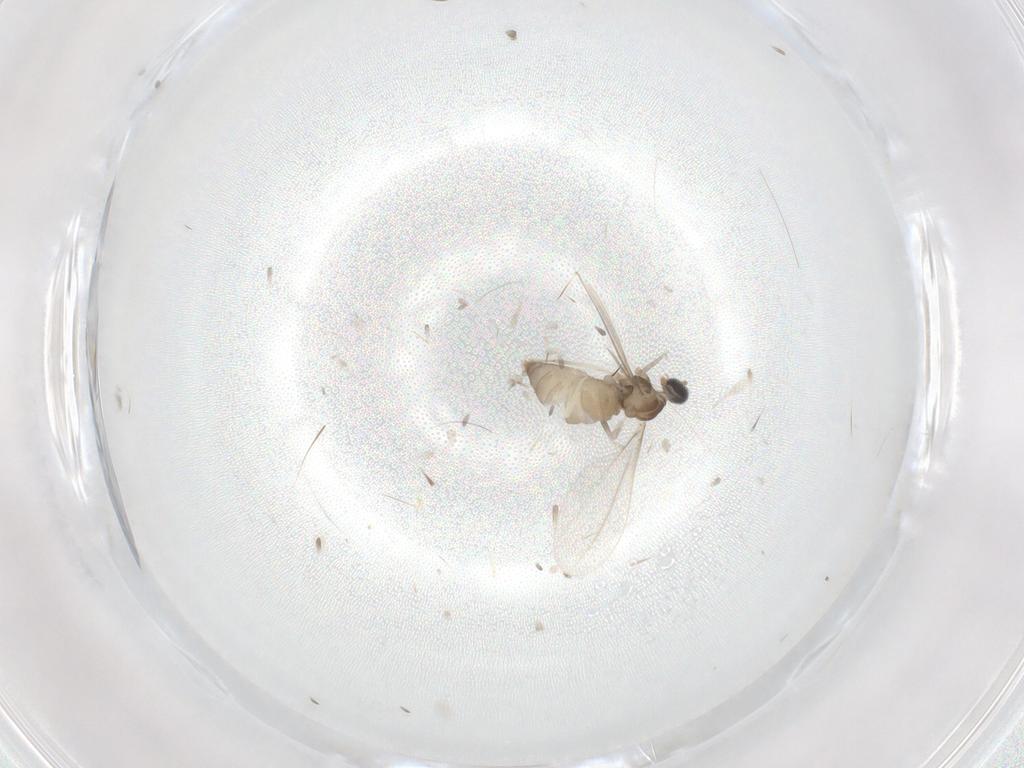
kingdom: Animalia
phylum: Arthropoda
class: Insecta
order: Diptera
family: Cecidomyiidae
